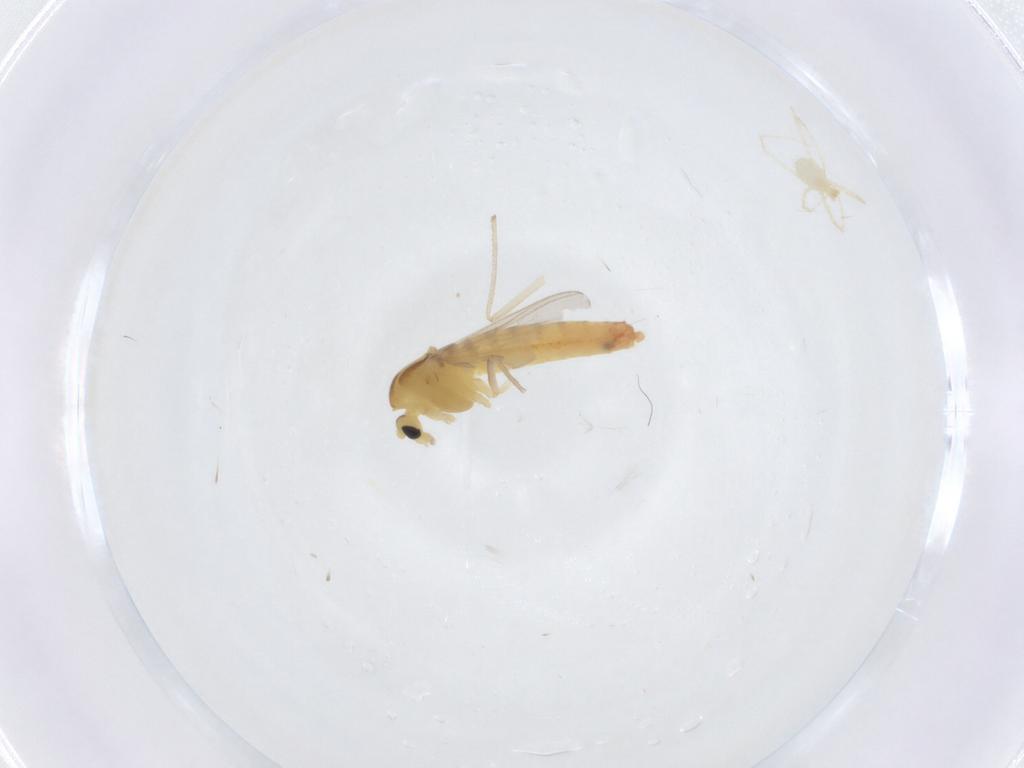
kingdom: Animalia
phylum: Arthropoda
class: Insecta
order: Diptera
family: Chironomidae
